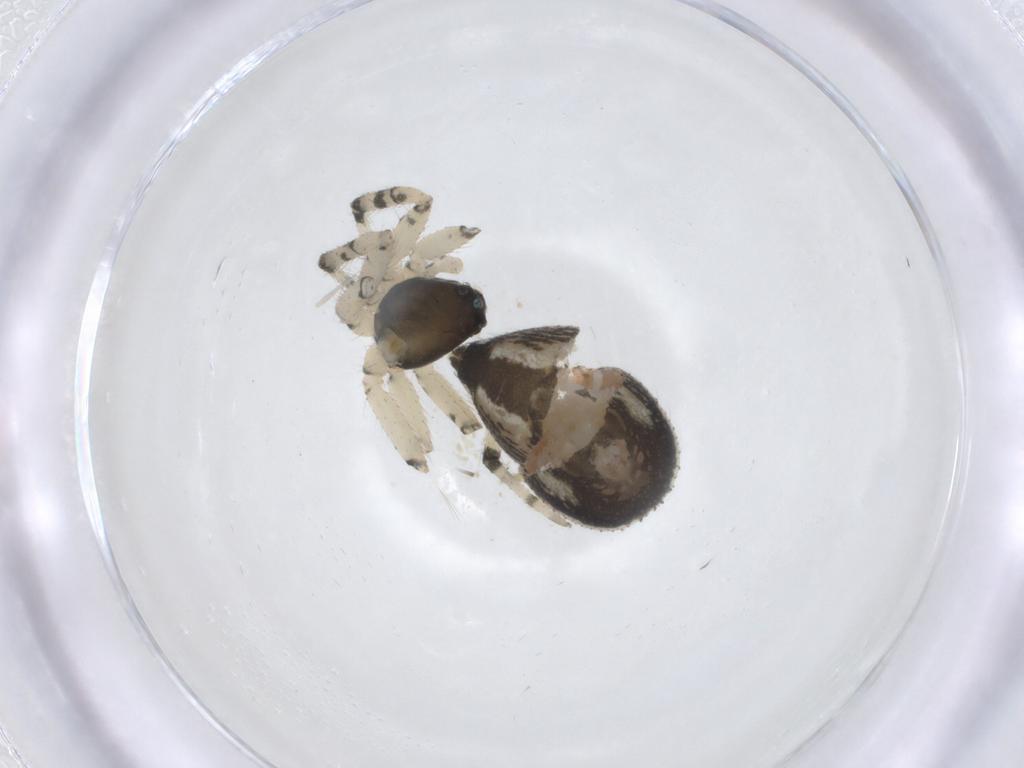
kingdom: Animalia
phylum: Arthropoda
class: Arachnida
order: Araneae
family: Theridiidae
